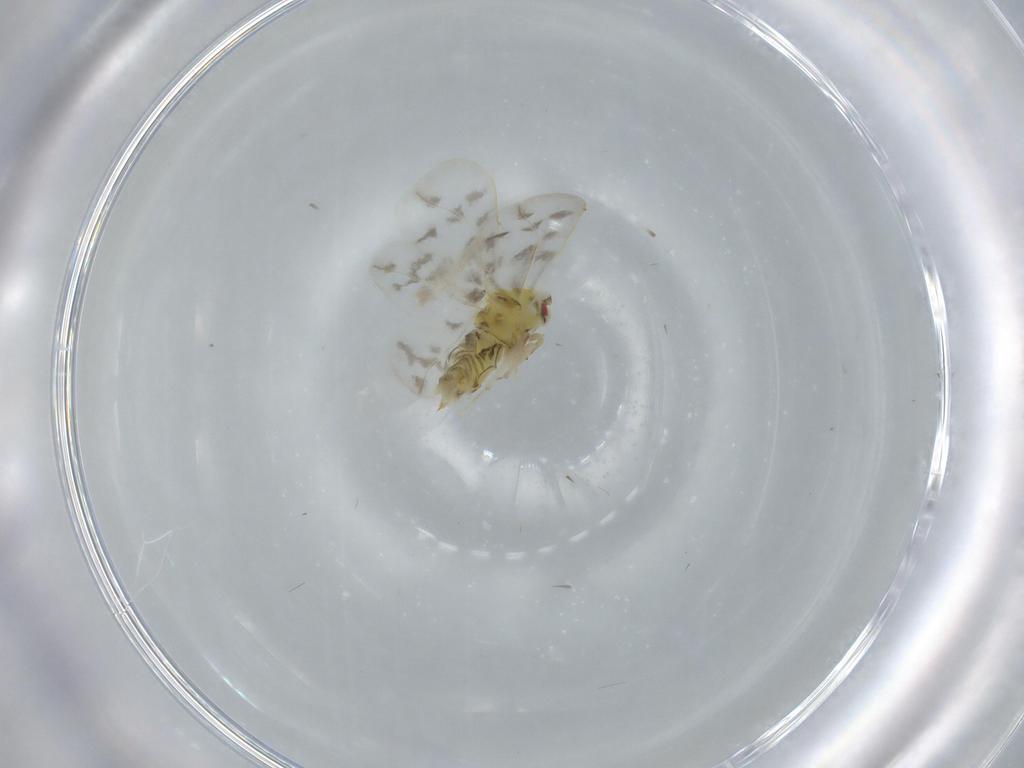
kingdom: Animalia
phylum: Arthropoda
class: Insecta
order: Hemiptera
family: Aleyrodidae
